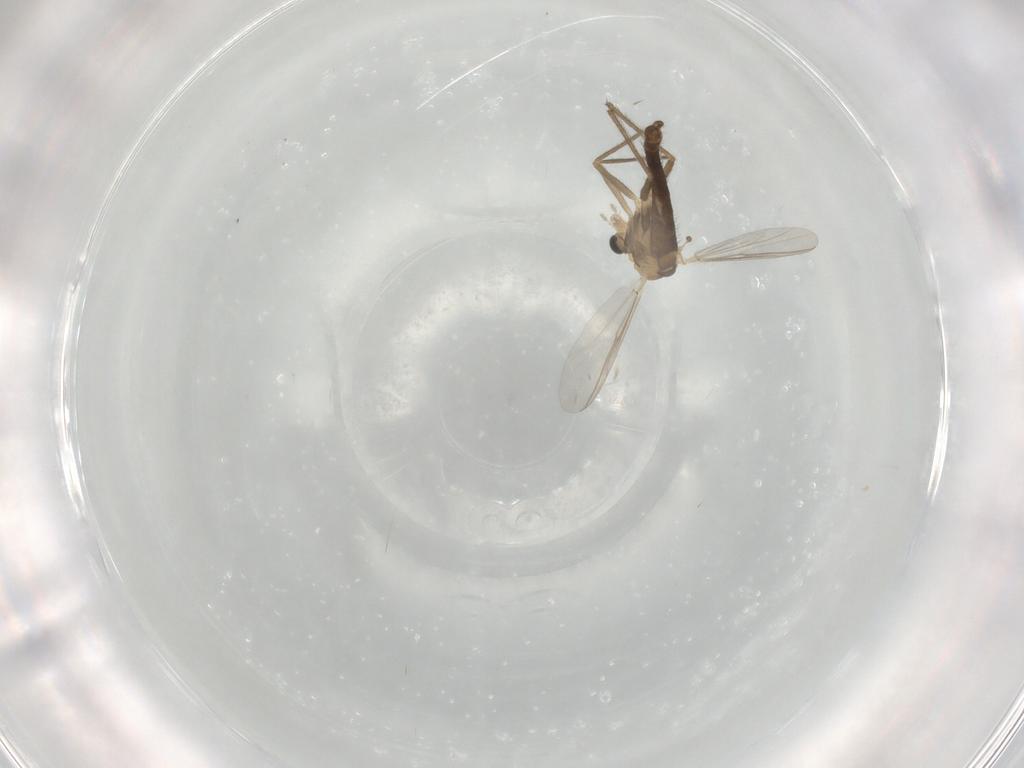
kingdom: Animalia
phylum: Arthropoda
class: Insecta
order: Diptera
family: Chironomidae
